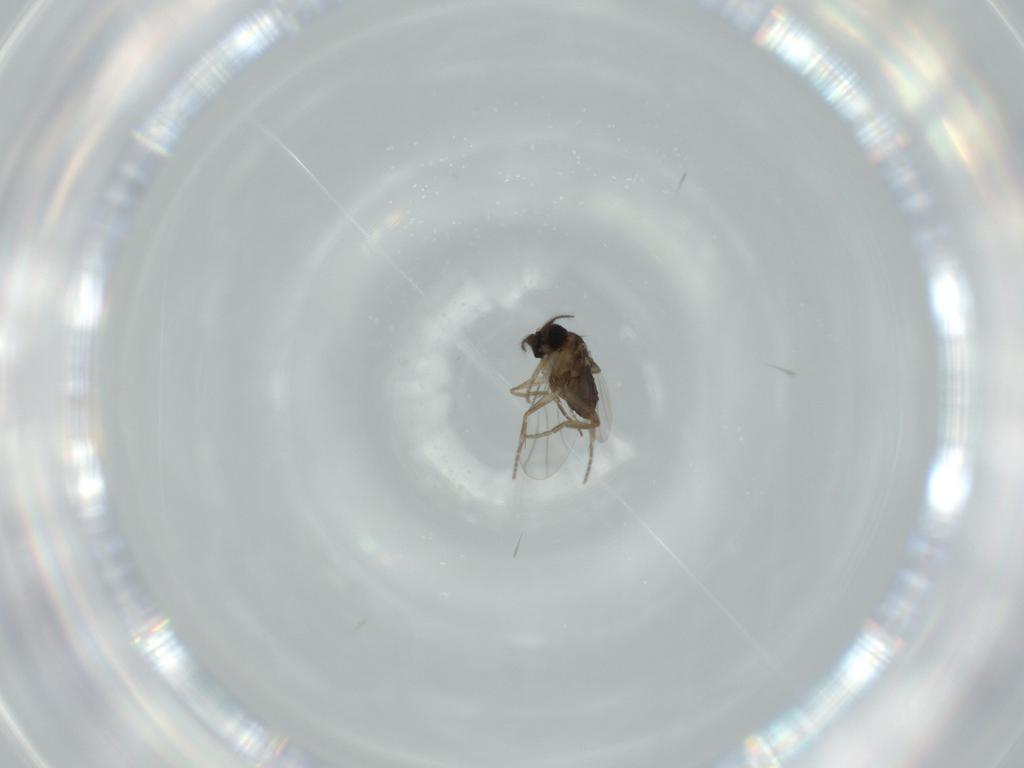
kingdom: Animalia
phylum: Arthropoda
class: Insecta
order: Diptera
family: Phoridae
